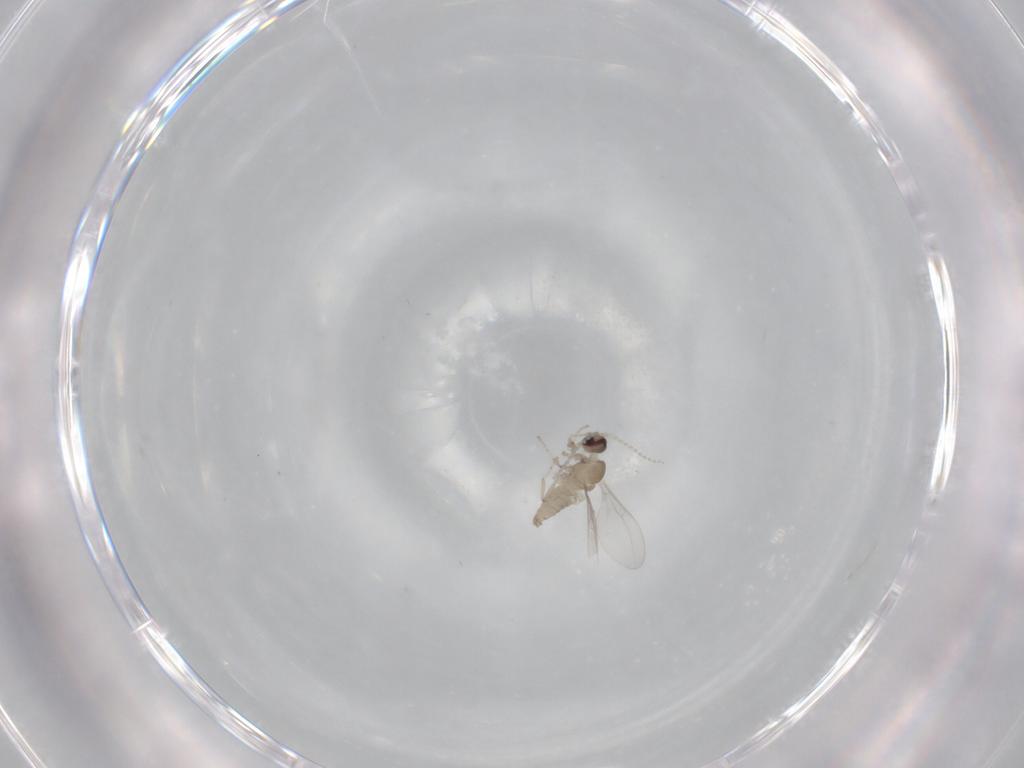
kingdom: Animalia
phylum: Arthropoda
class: Insecta
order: Diptera
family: Cecidomyiidae
